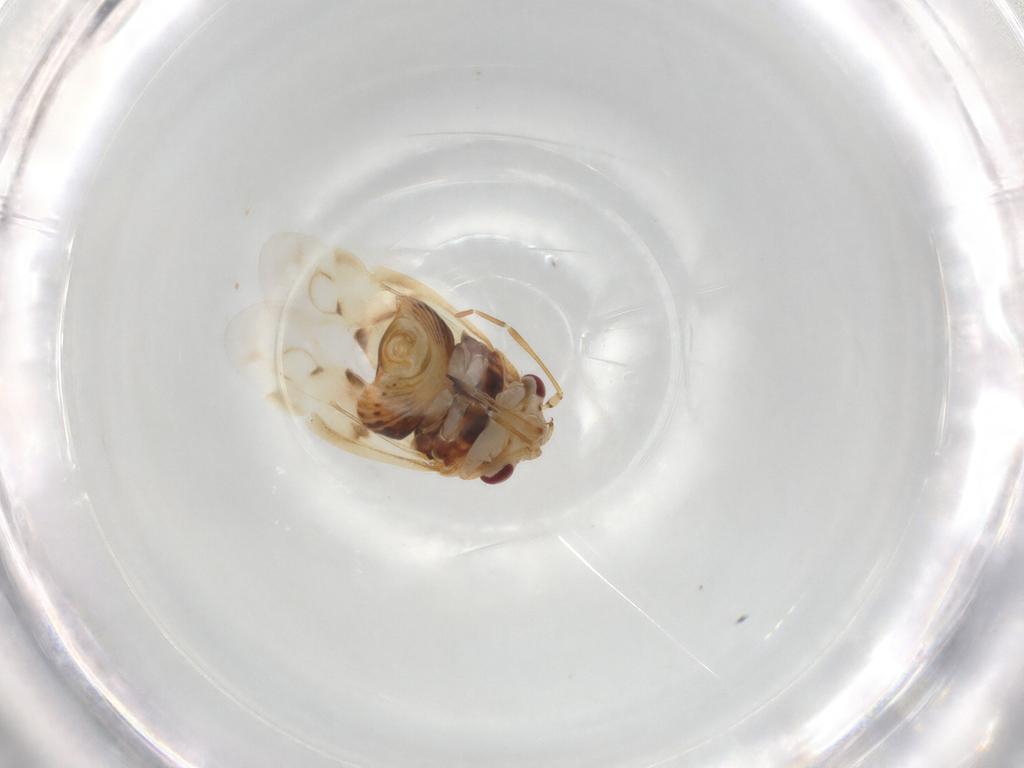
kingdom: Animalia
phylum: Arthropoda
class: Insecta
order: Hemiptera
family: Miridae
